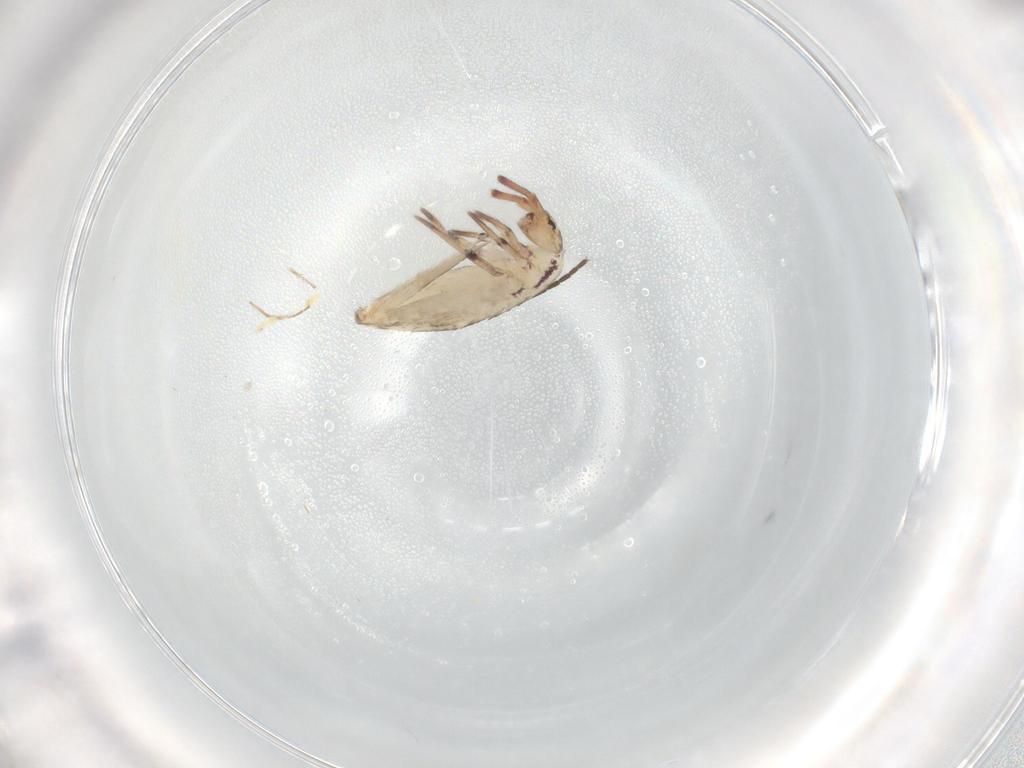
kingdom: Animalia
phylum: Arthropoda
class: Collembola
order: Entomobryomorpha
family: Entomobryidae
